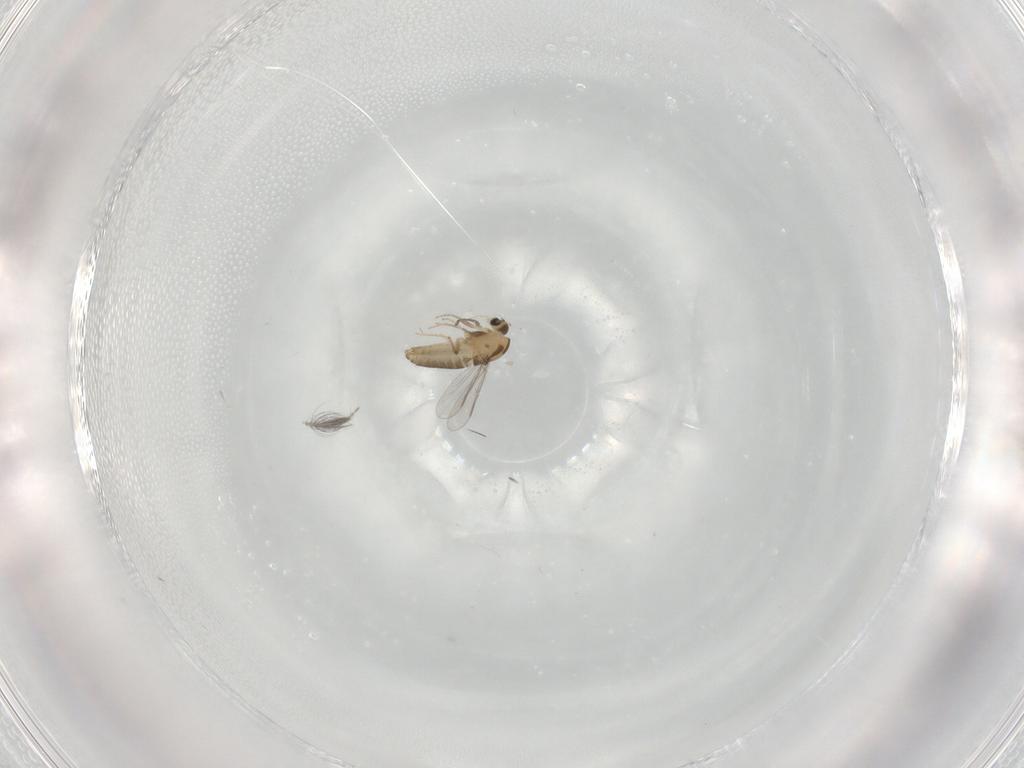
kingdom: Animalia
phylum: Arthropoda
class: Insecta
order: Diptera
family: Chironomidae
